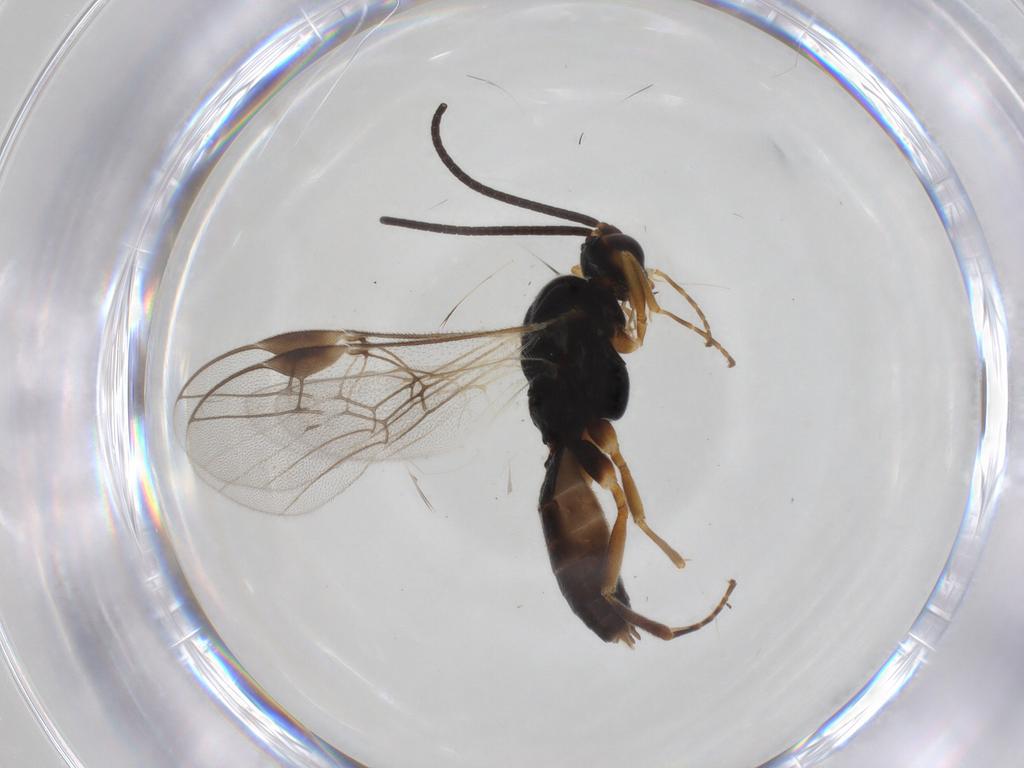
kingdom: Animalia
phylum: Arthropoda
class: Insecta
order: Hymenoptera
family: Braconidae
